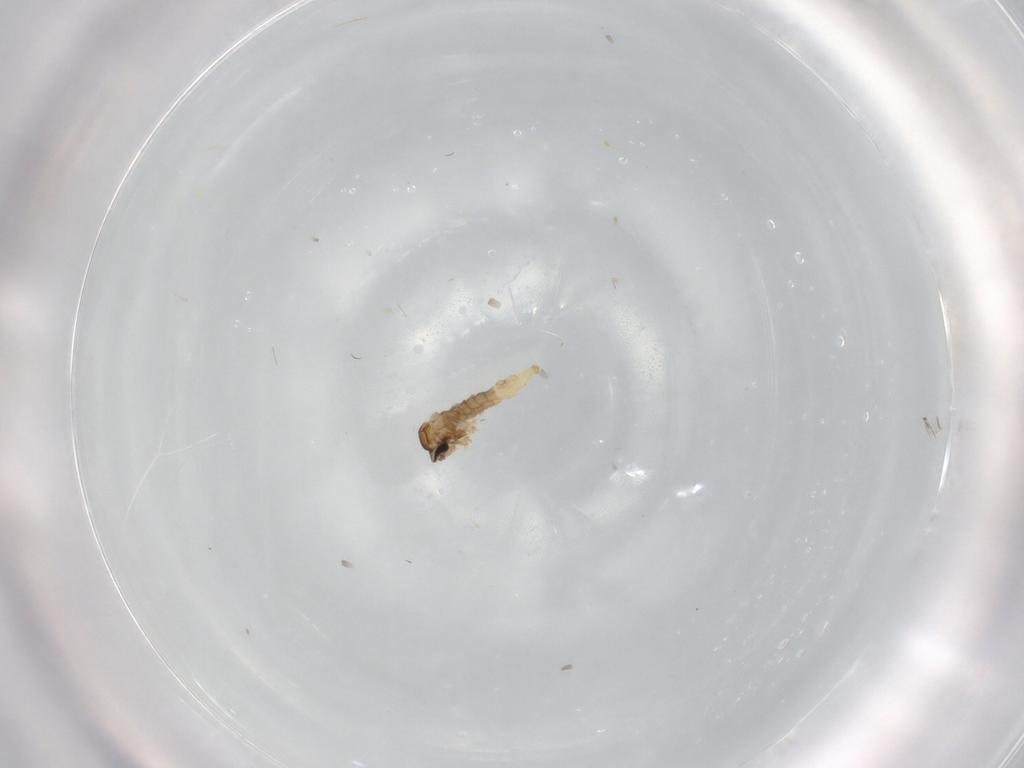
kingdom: Animalia
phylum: Arthropoda
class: Insecta
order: Diptera
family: Cecidomyiidae
